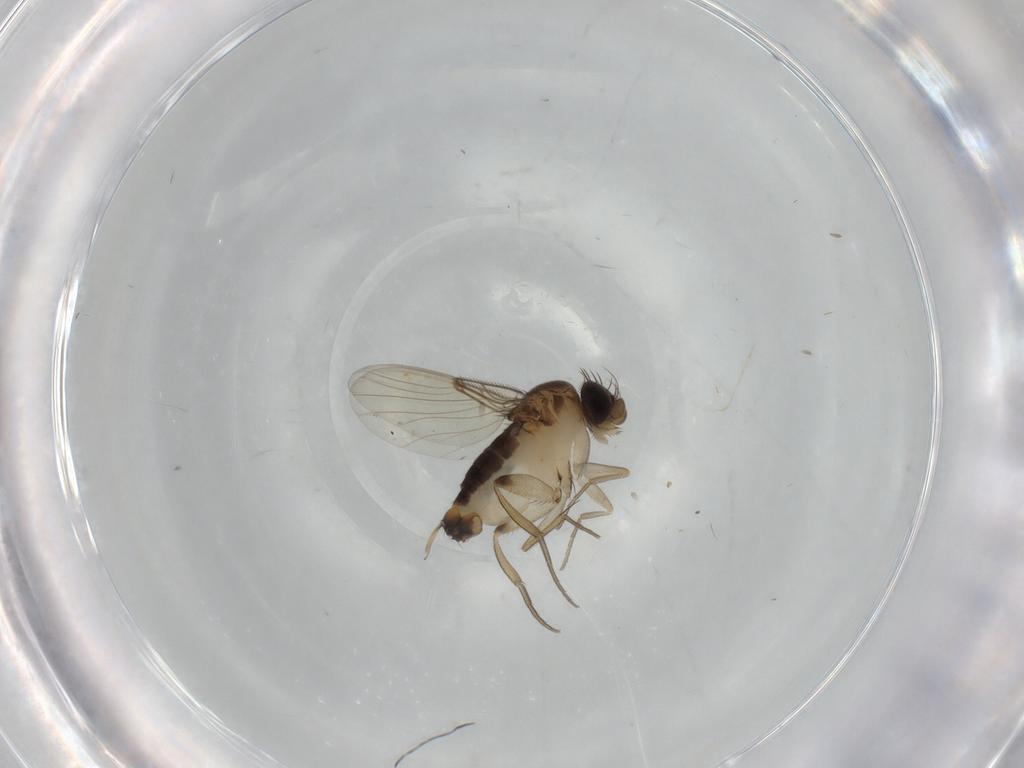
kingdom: Animalia
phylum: Arthropoda
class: Insecta
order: Diptera
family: Phoridae
